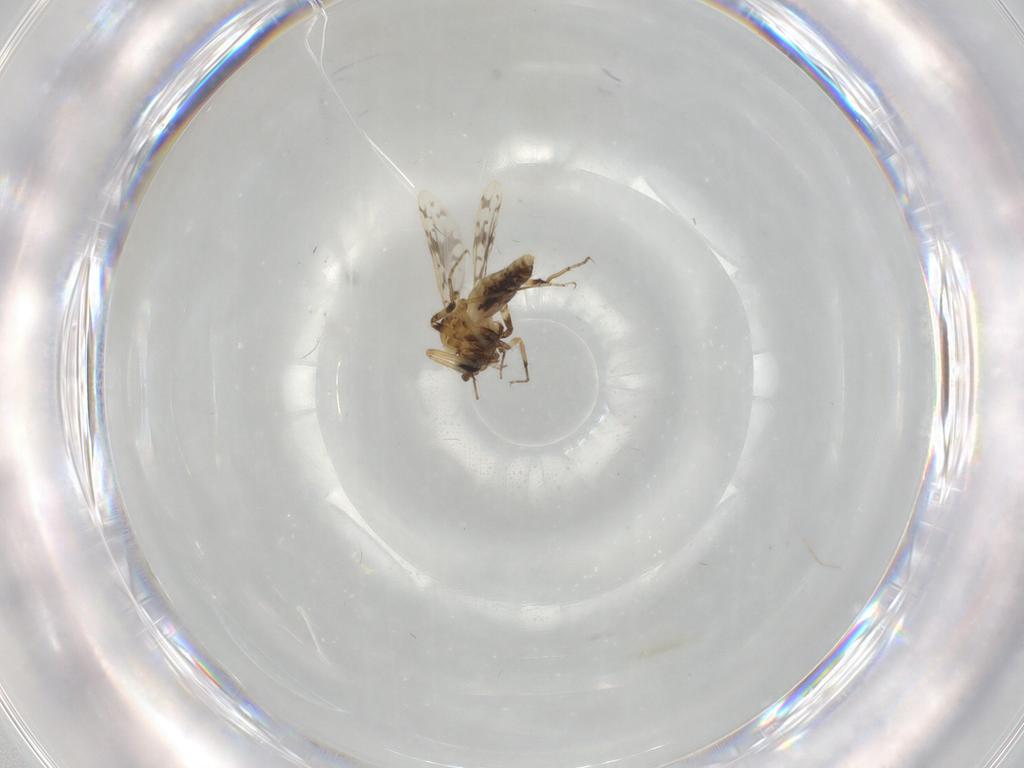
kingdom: Animalia
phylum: Arthropoda
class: Insecta
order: Diptera
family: Ceratopogonidae
